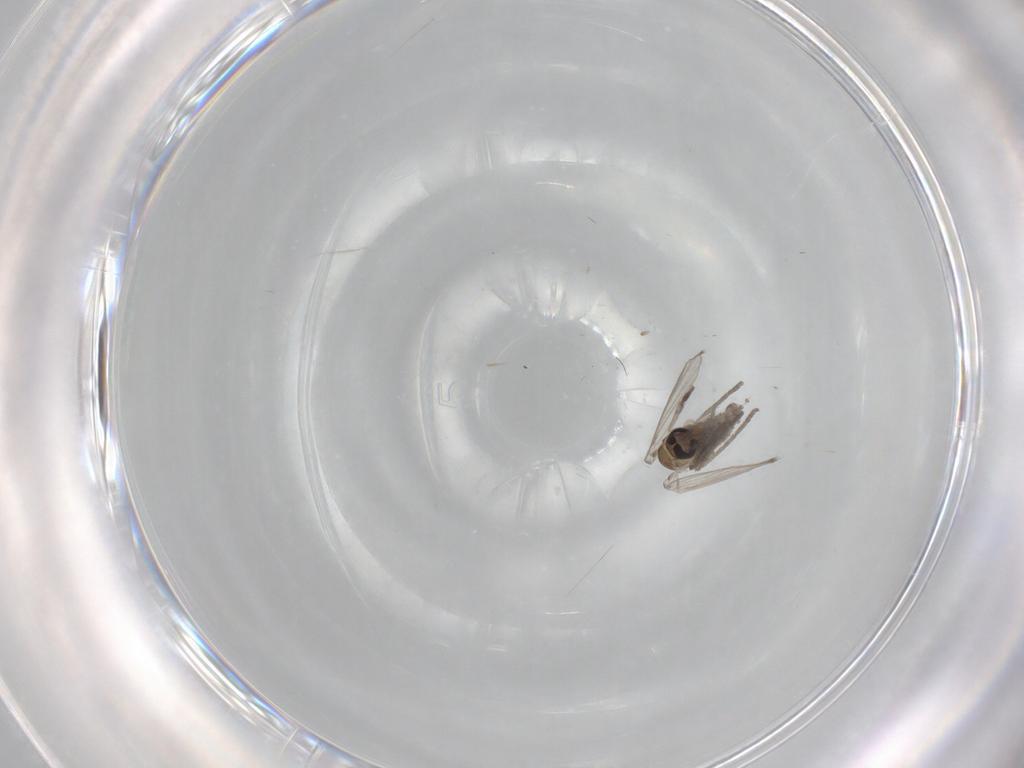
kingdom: Animalia
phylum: Arthropoda
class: Insecta
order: Diptera
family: Psychodidae
